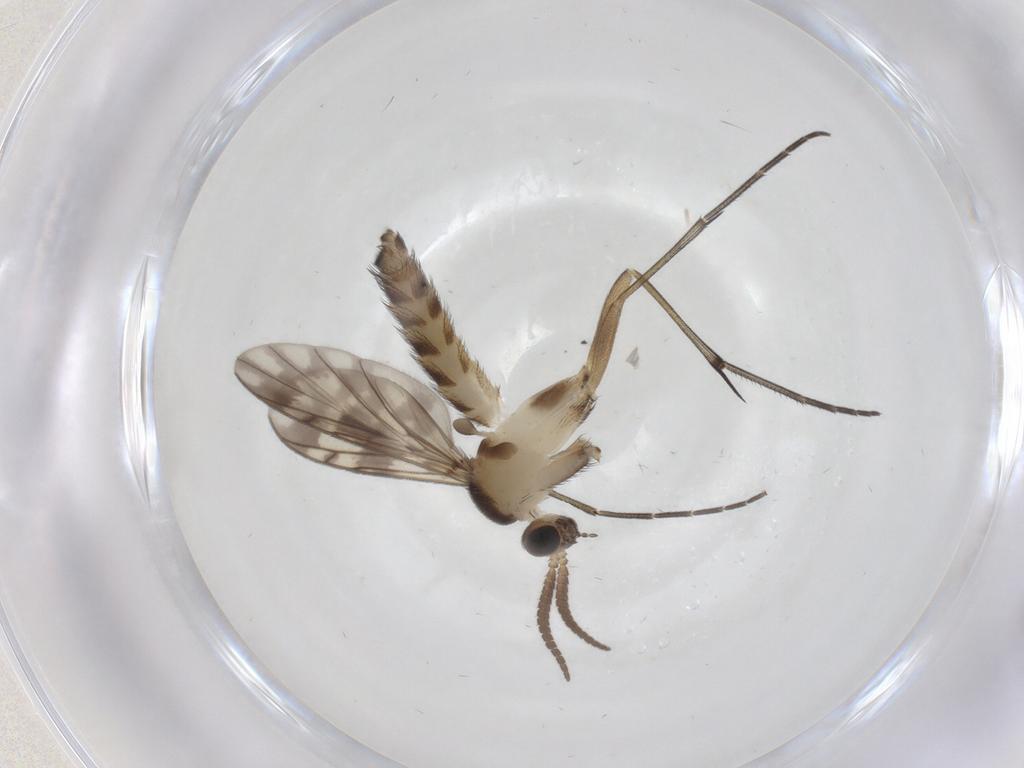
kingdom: Animalia
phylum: Arthropoda
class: Insecta
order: Diptera
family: Keroplatidae
